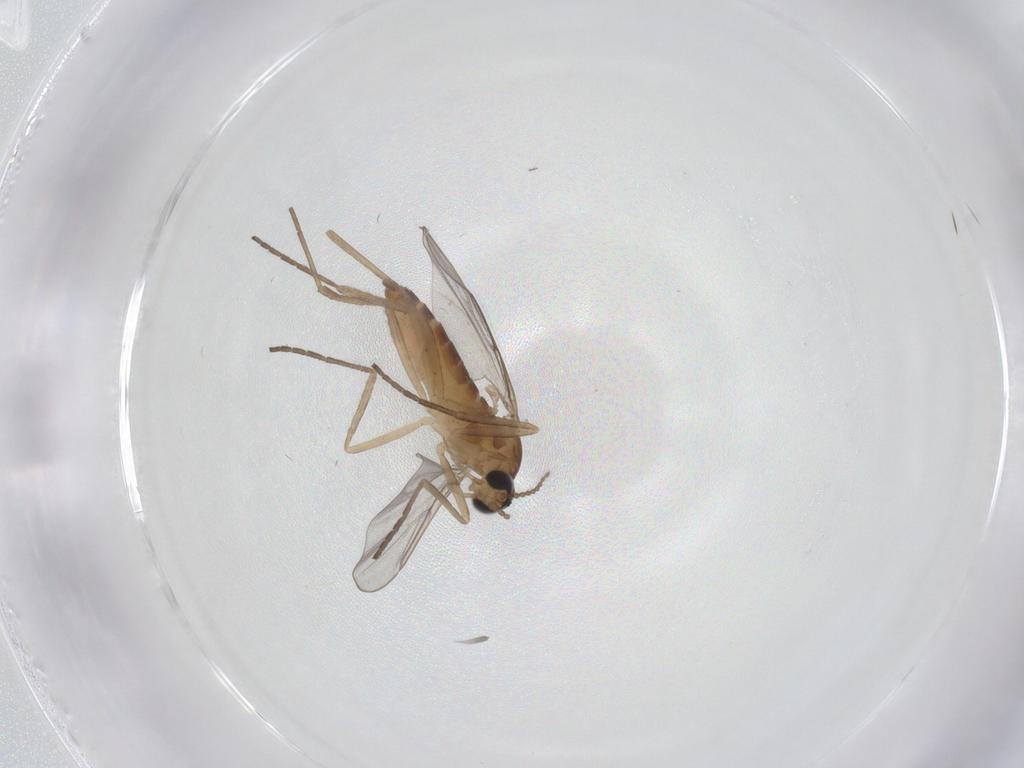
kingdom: Animalia
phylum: Arthropoda
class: Insecta
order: Diptera
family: Cecidomyiidae
